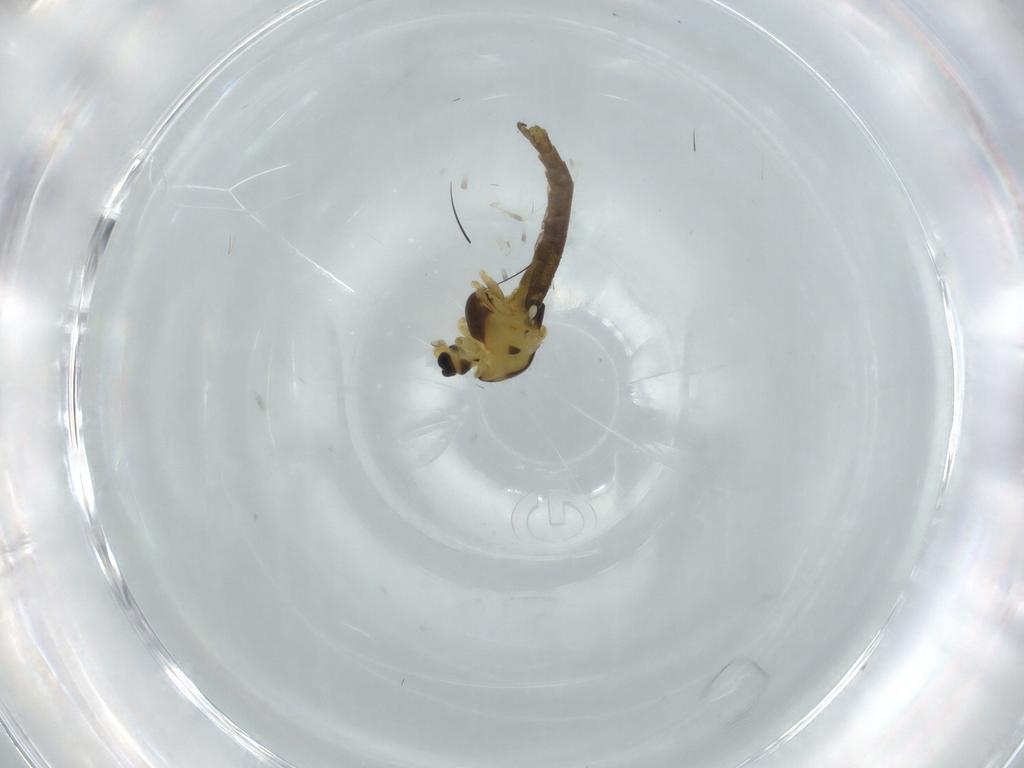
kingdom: Animalia
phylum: Arthropoda
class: Insecta
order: Diptera
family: Chironomidae
